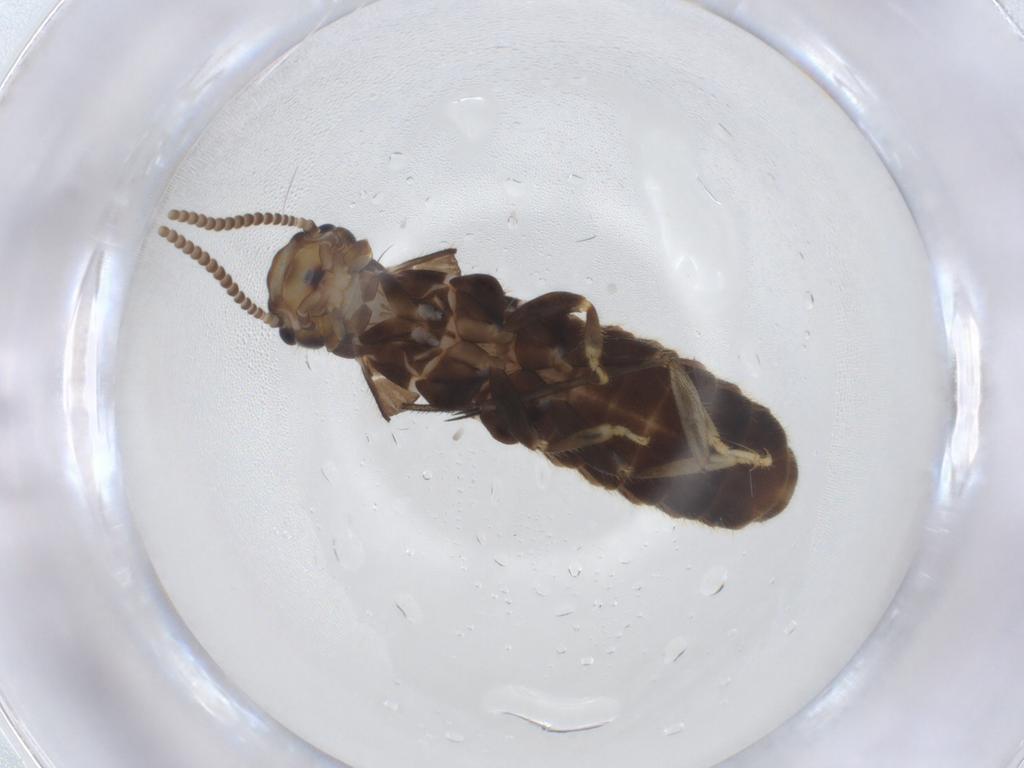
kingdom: Animalia
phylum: Arthropoda
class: Insecta
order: Blattodea
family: Rhinotermitidae
